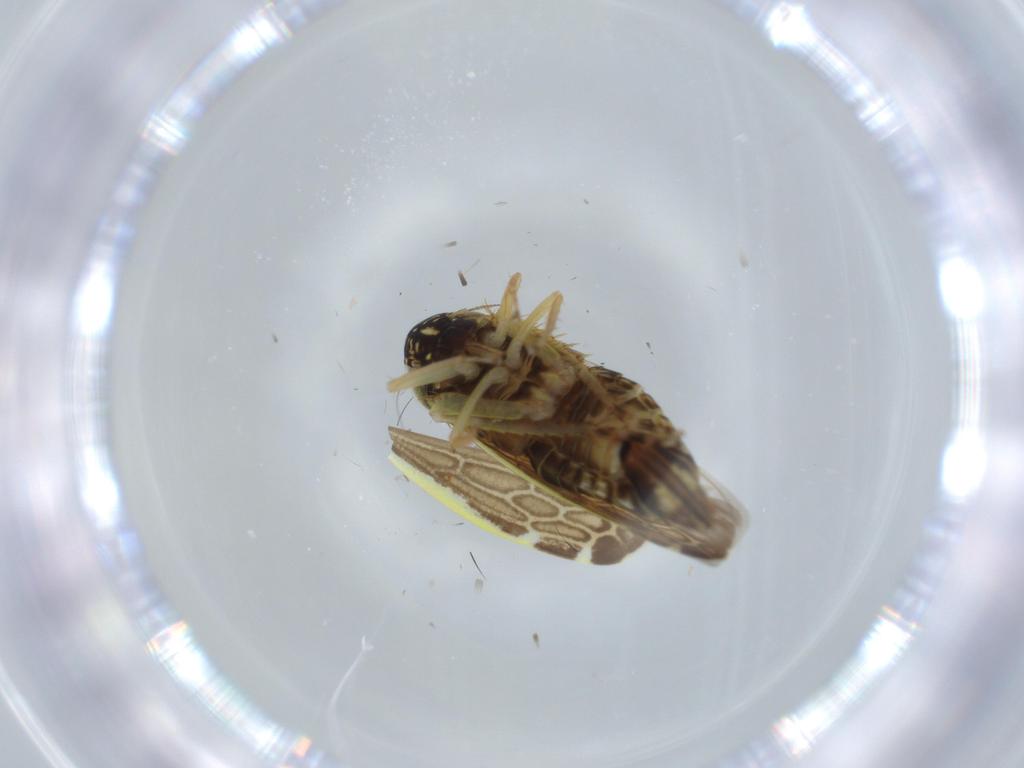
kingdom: Animalia
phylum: Arthropoda
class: Insecta
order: Hemiptera
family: Cicadellidae
